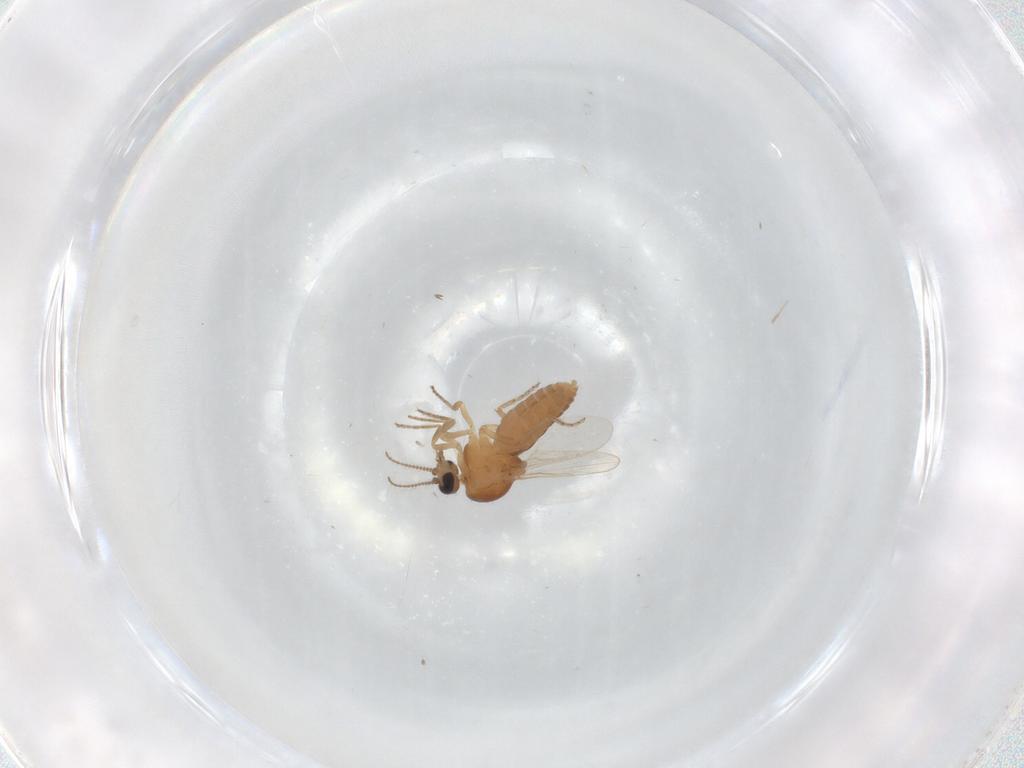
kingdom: Animalia
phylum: Arthropoda
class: Insecta
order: Diptera
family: Ceratopogonidae
